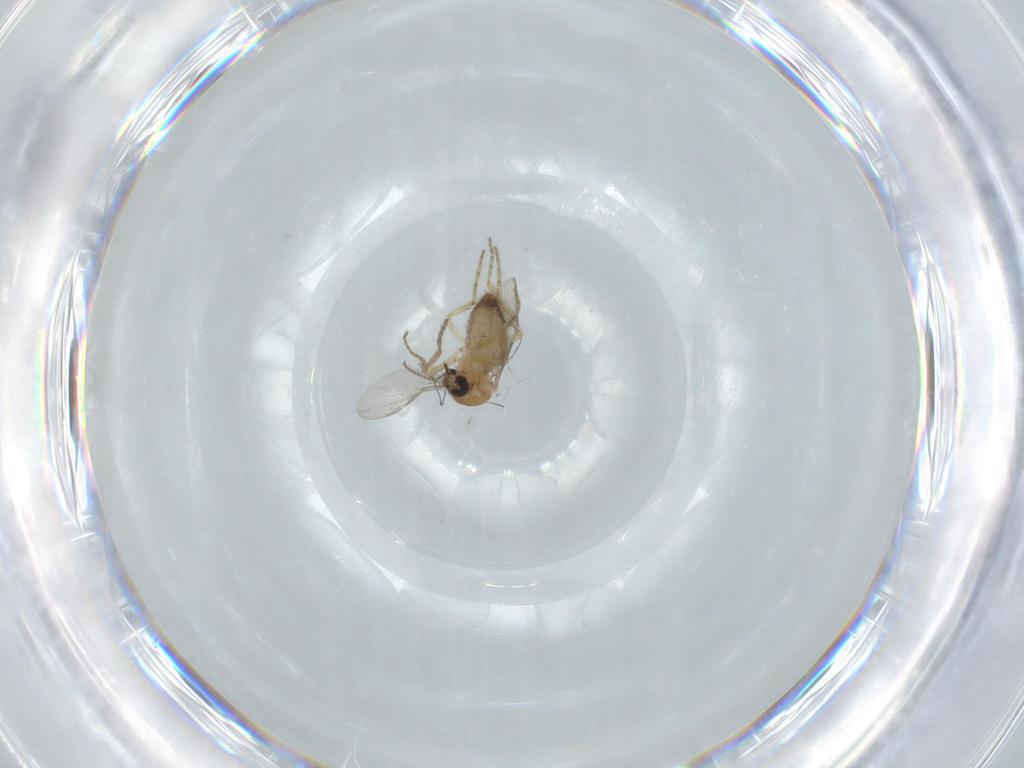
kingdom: Animalia
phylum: Arthropoda
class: Insecta
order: Diptera
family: Ceratopogonidae
